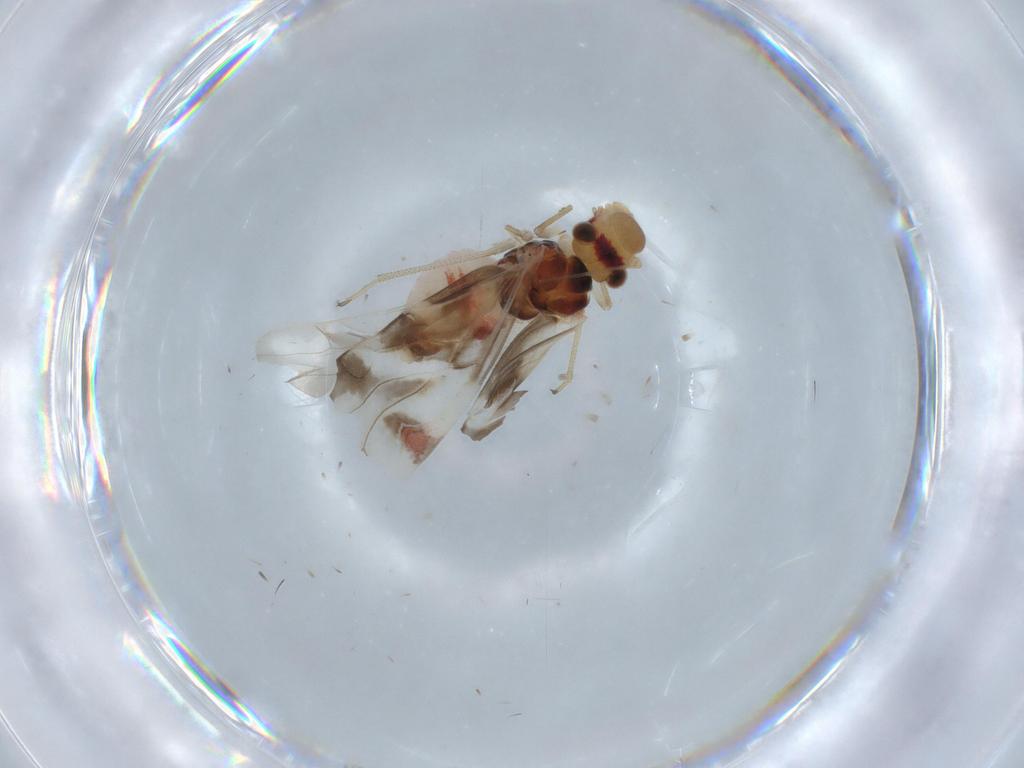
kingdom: Animalia
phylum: Arthropoda
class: Insecta
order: Psocodea
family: Caeciliusidae
